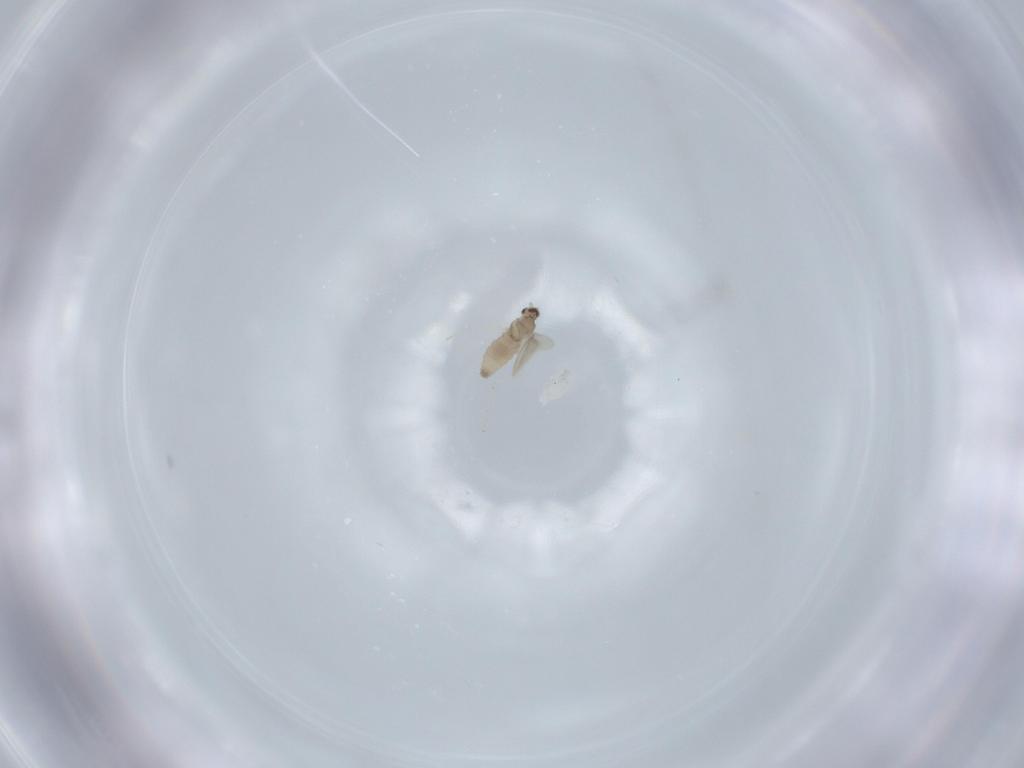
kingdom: Animalia
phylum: Arthropoda
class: Insecta
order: Diptera
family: Cecidomyiidae
